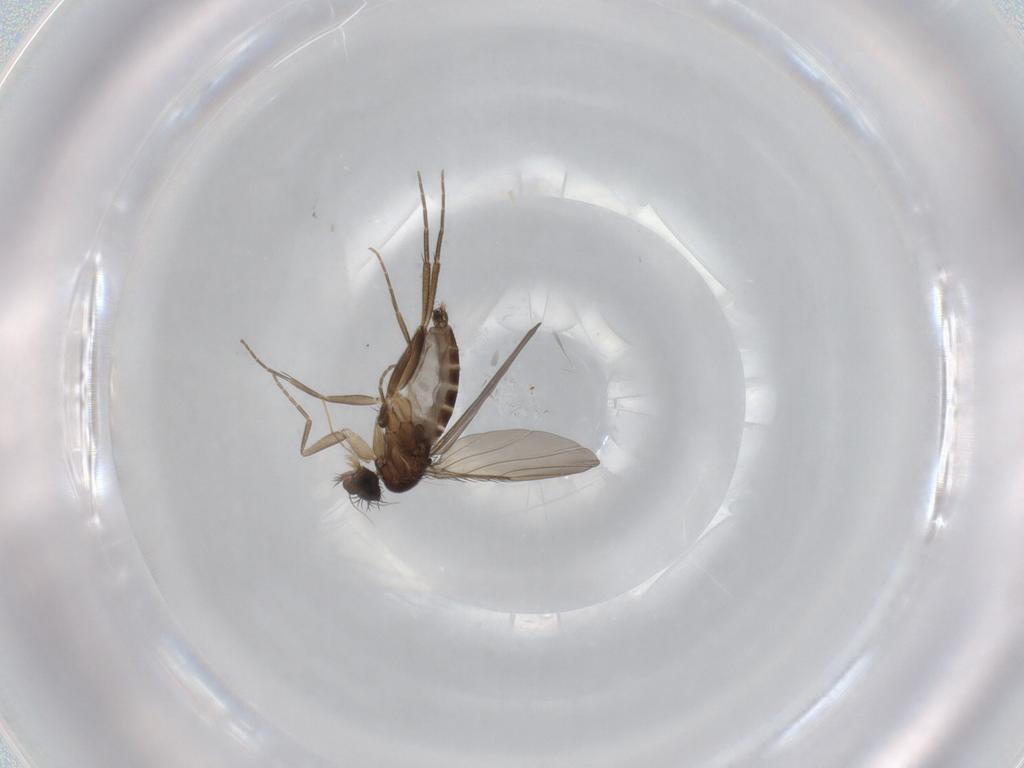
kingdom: Animalia
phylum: Arthropoda
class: Insecta
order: Diptera
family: Phoridae
